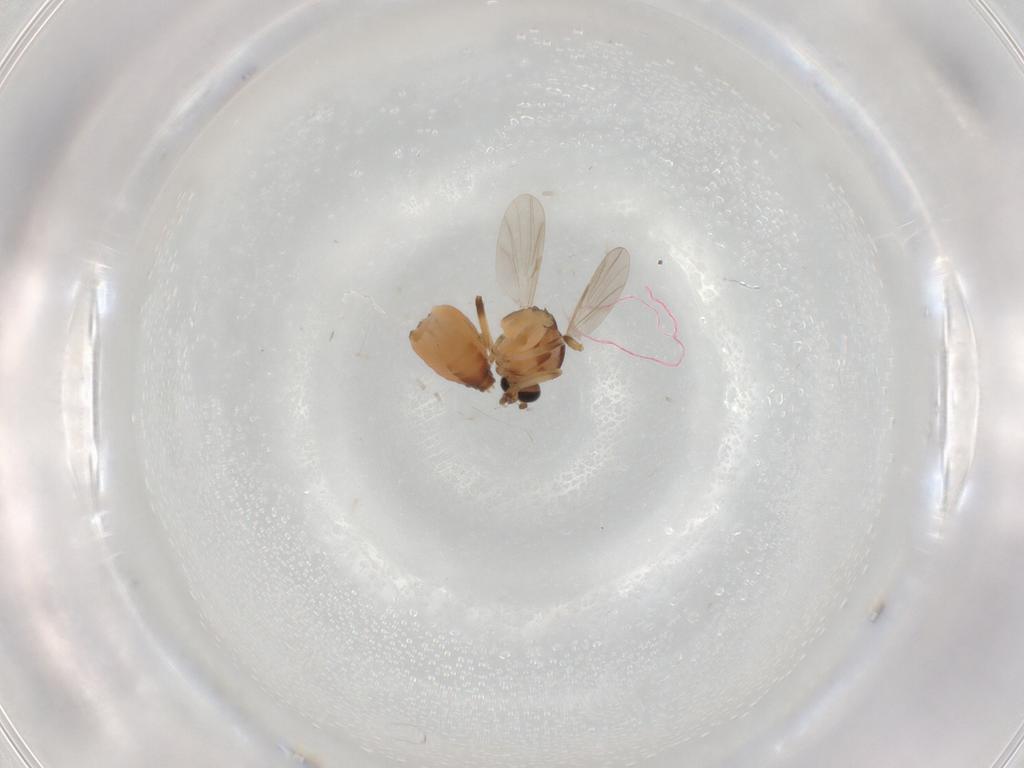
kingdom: Animalia
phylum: Arthropoda
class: Insecta
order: Diptera
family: Ceratopogonidae
